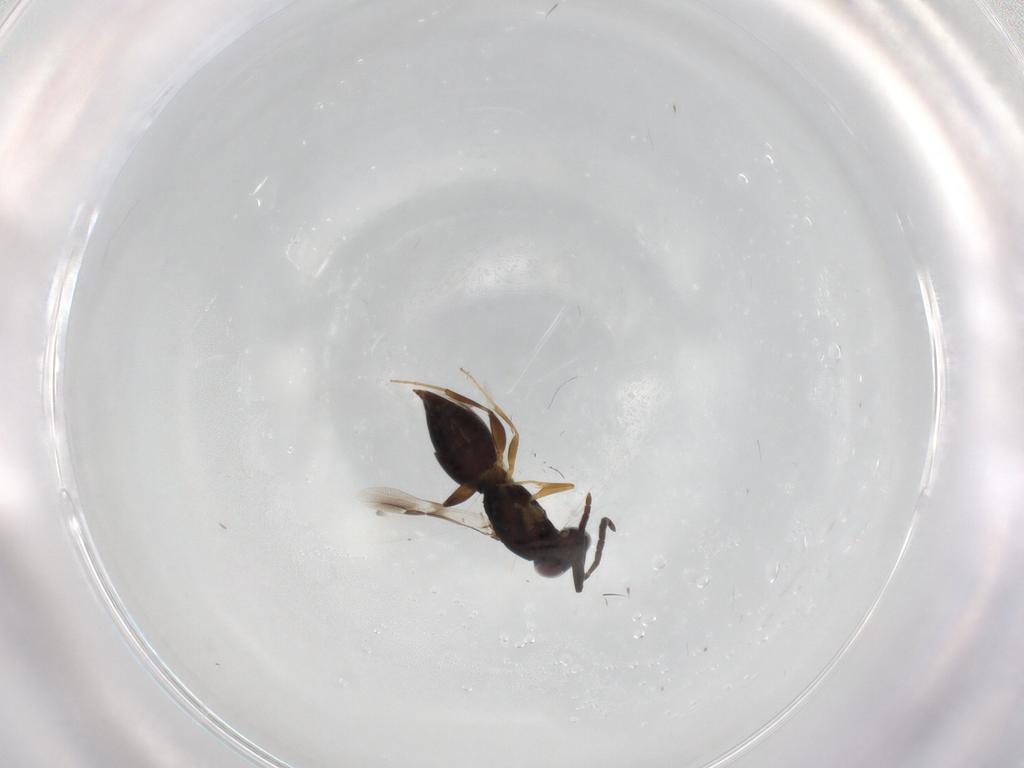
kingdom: Animalia
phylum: Arthropoda
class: Insecta
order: Hymenoptera
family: Megaspilidae
